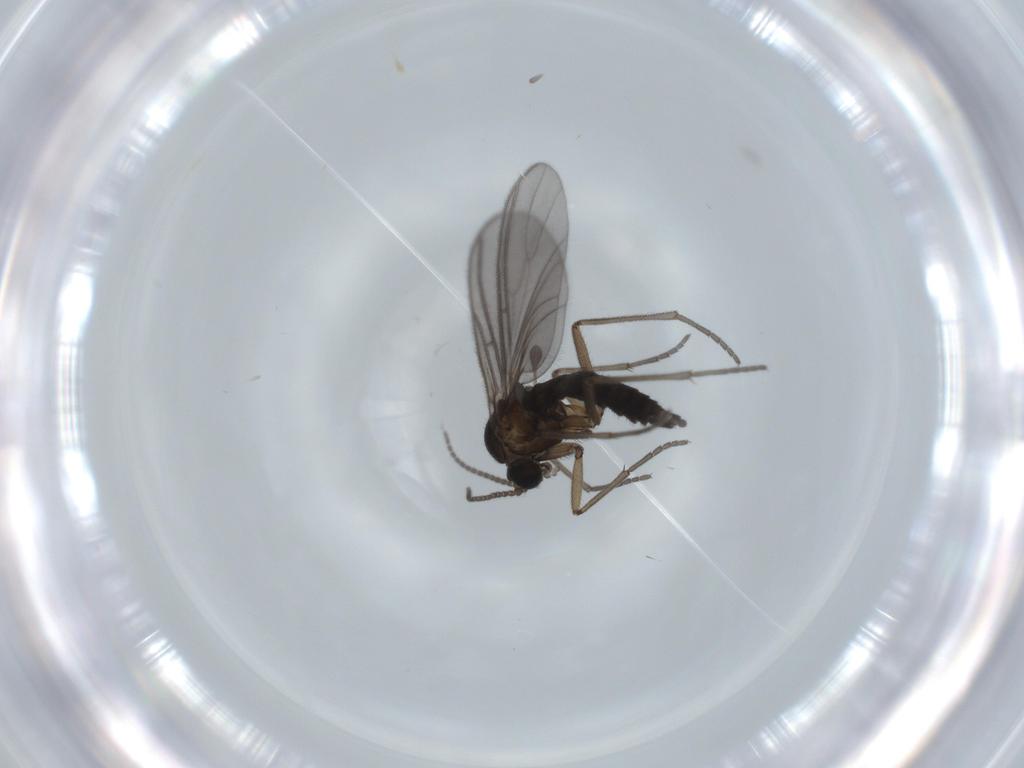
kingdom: Animalia
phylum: Arthropoda
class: Insecta
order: Diptera
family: Sciaridae
